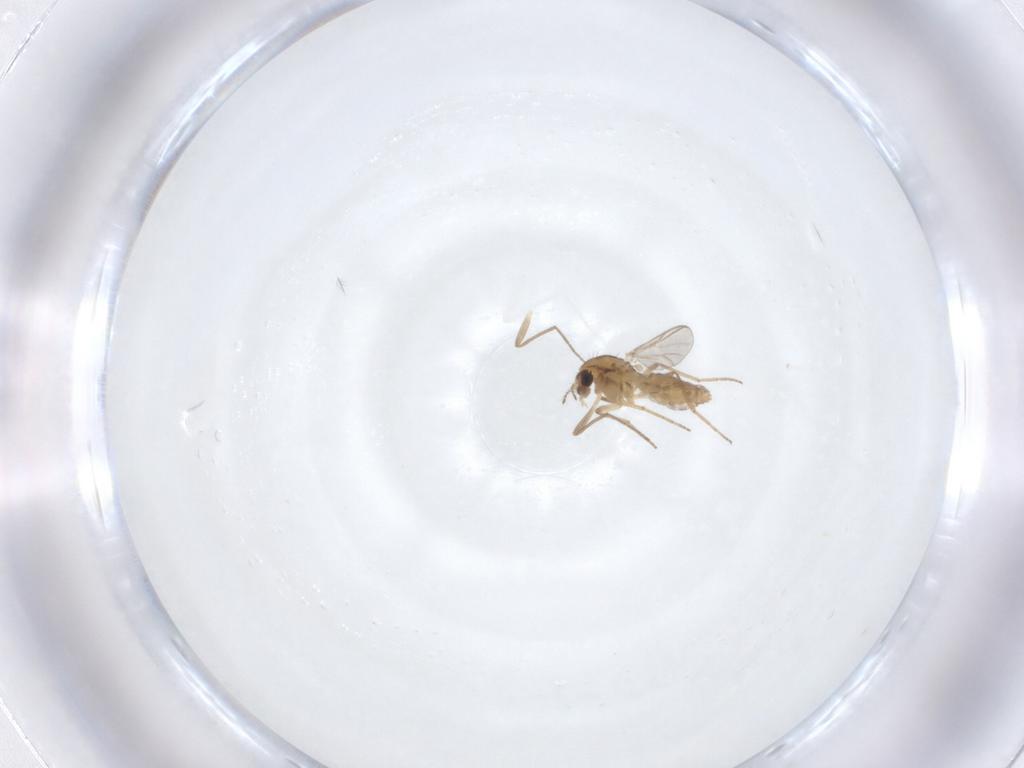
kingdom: Animalia
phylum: Arthropoda
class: Insecta
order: Diptera
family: Chironomidae
